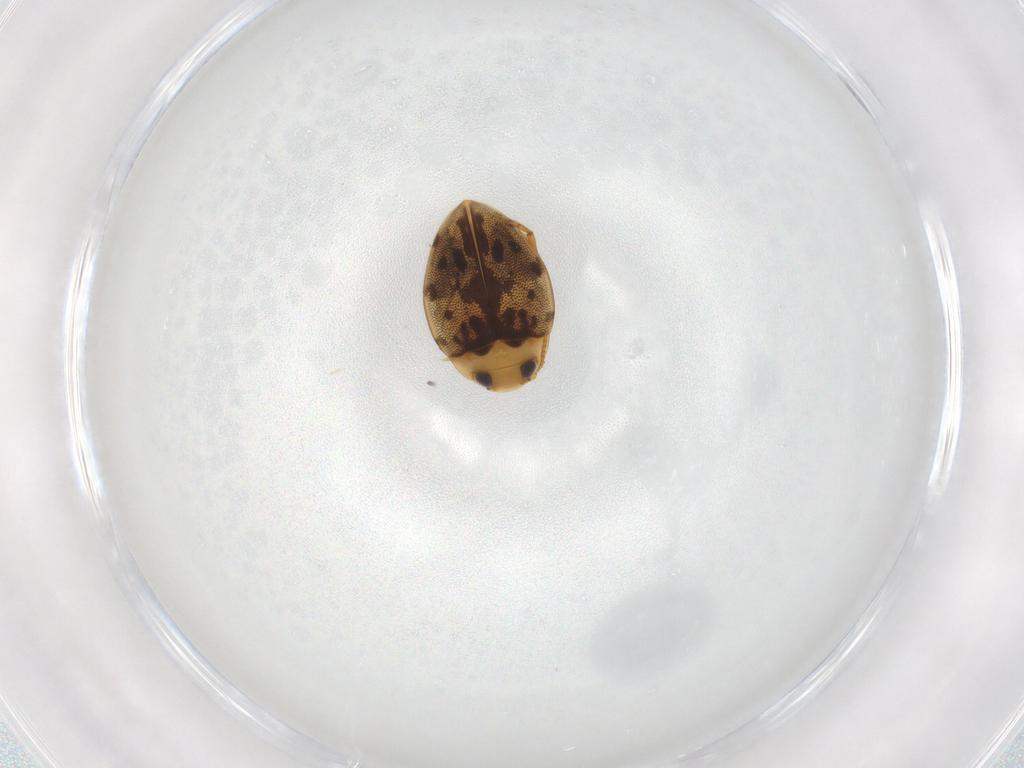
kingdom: Animalia
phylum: Arthropoda
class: Insecta
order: Coleoptera
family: Dytiscidae
